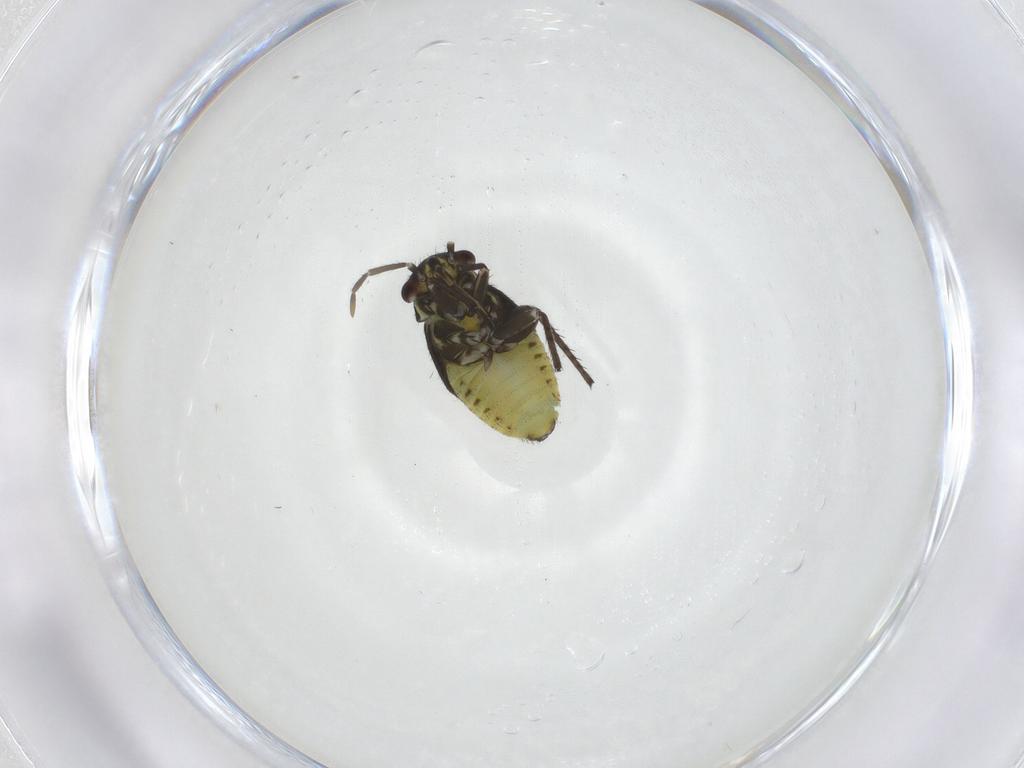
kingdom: Animalia
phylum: Arthropoda
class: Insecta
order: Hemiptera
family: Miridae
